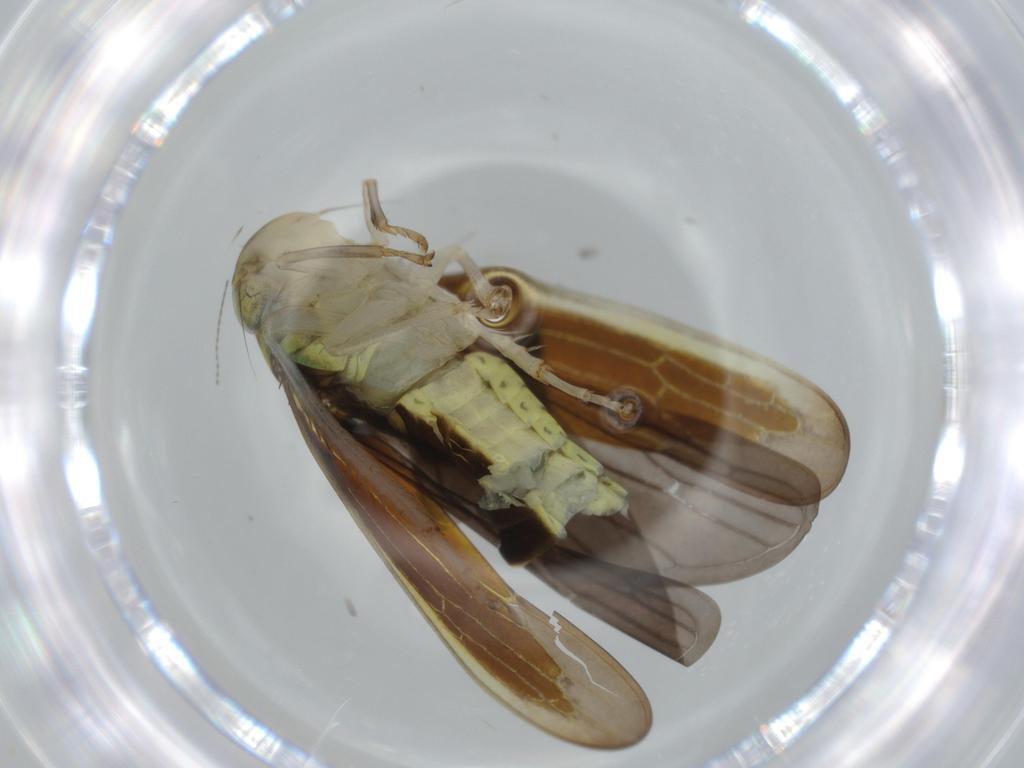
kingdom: Animalia
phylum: Arthropoda
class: Insecta
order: Hemiptera
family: Cicadellidae
